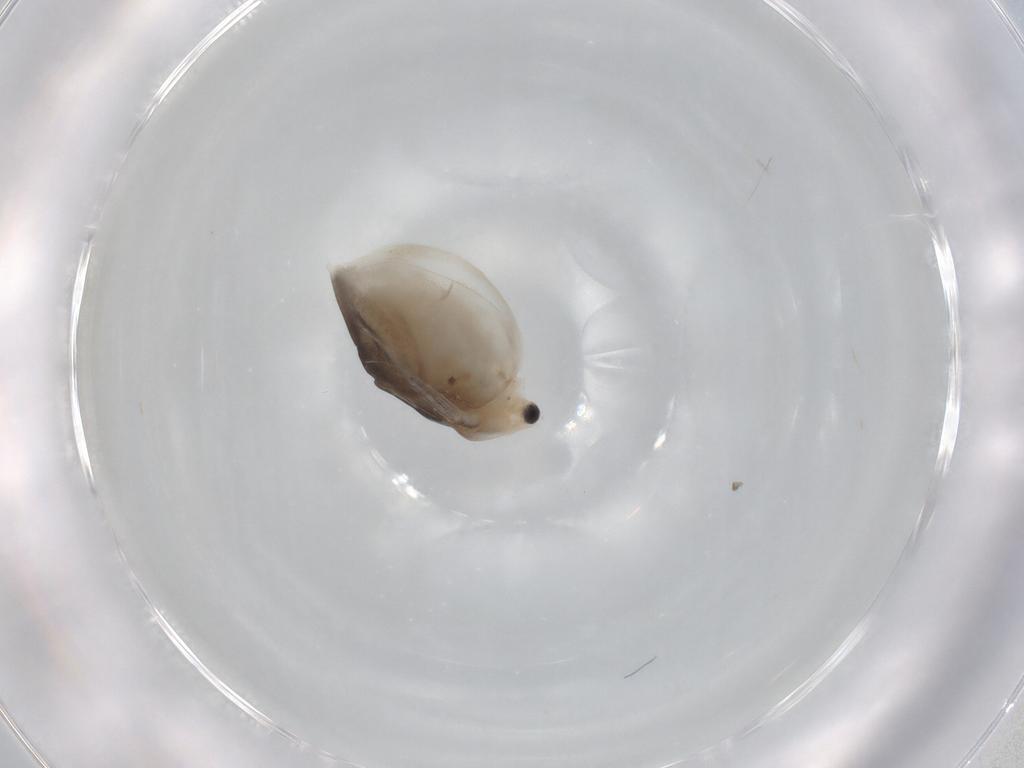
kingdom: Animalia
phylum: Arthropoda
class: Branchiopoda
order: Diplostraca
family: Daphniidae
